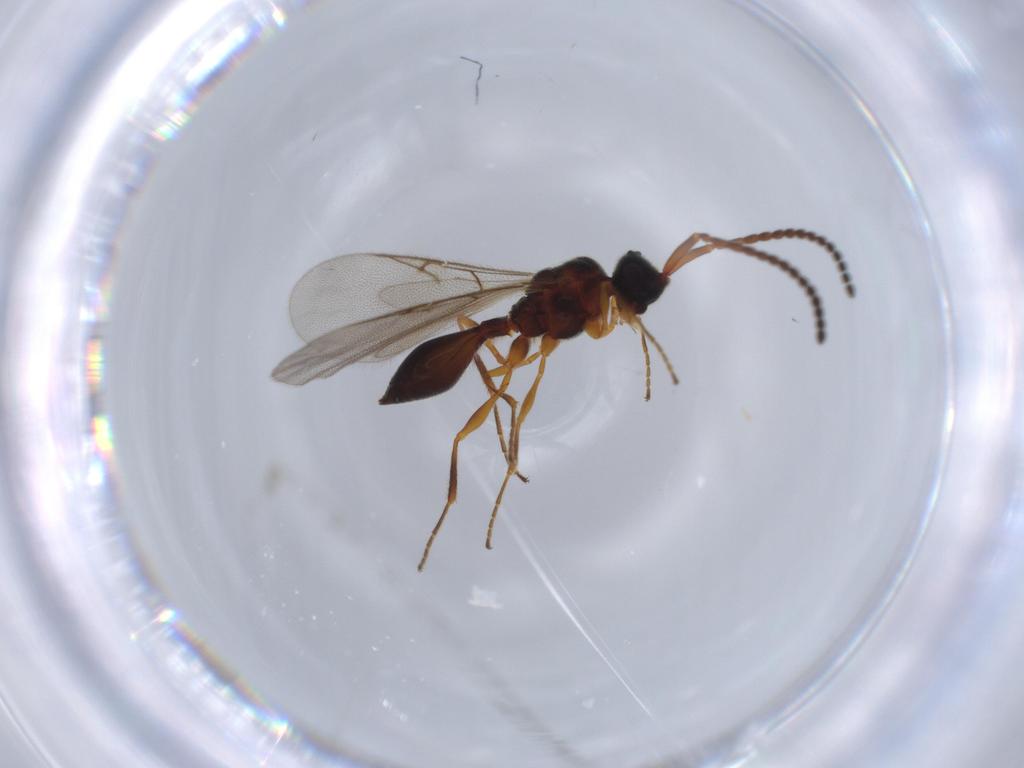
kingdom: Animalia
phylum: Arthropoda
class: Insecta
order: Hymenoptera
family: Diapriidae
